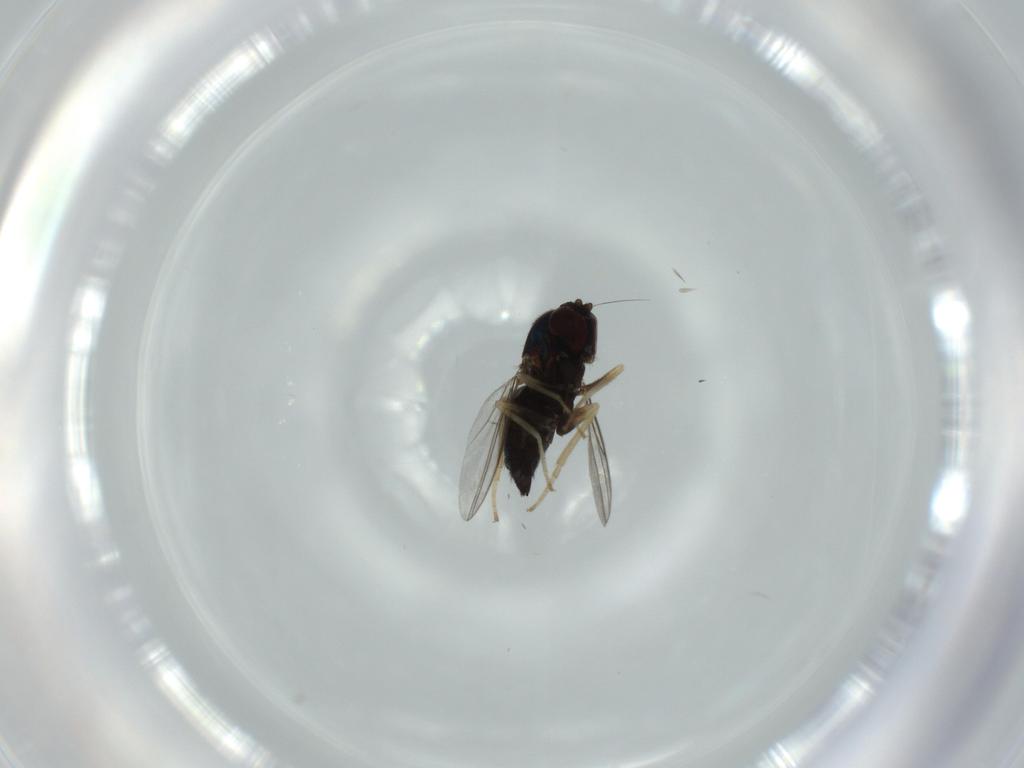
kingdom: Animalia
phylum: Arthropoda
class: Insecta
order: Diptera
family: Dolichopodidae
